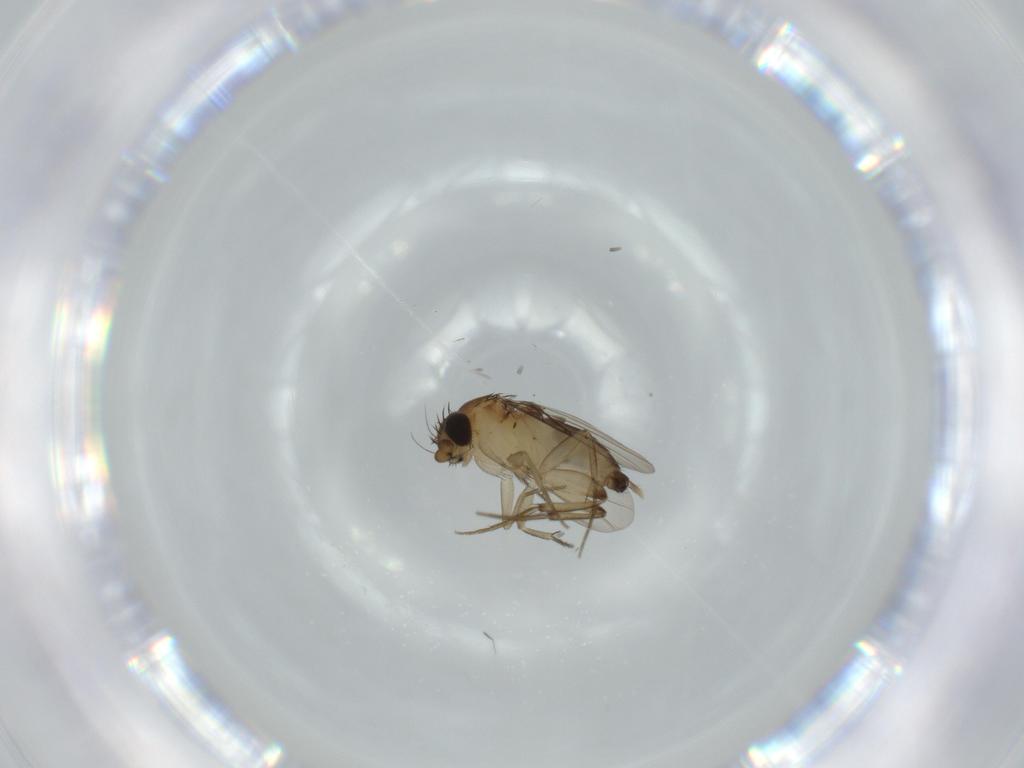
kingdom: Animalia
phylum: Arthropoda
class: Insecta
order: Diptera
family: Phoridae
